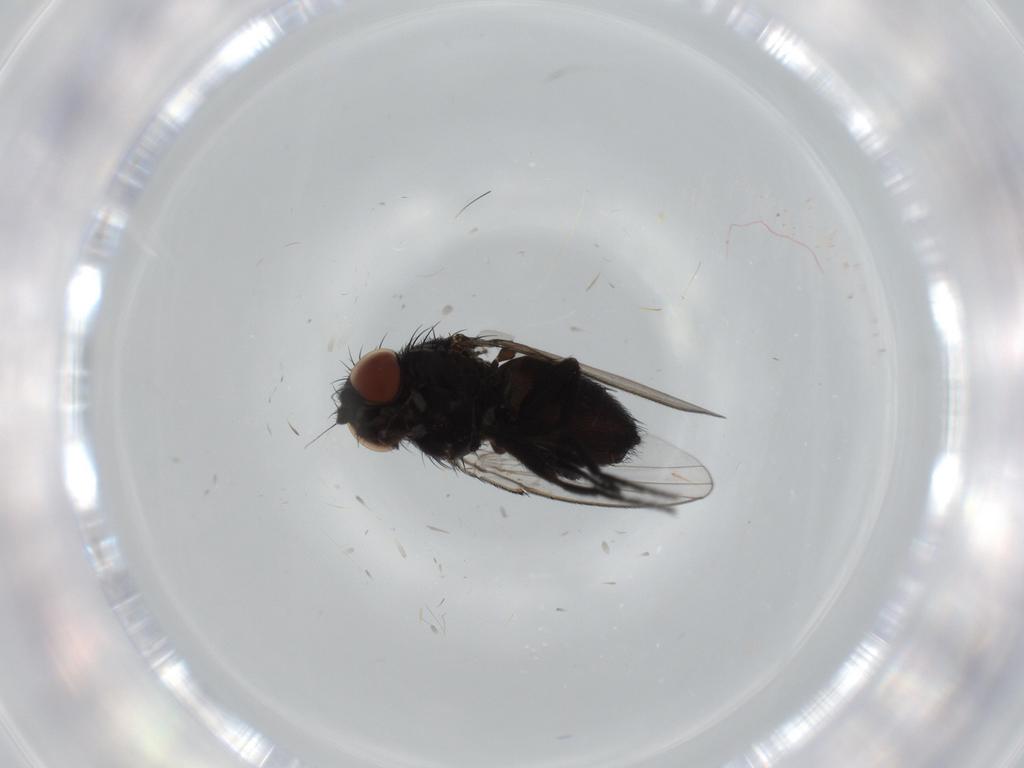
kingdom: Animalia
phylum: Arthropoda
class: Insecta
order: Diptera
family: Milichiidae
